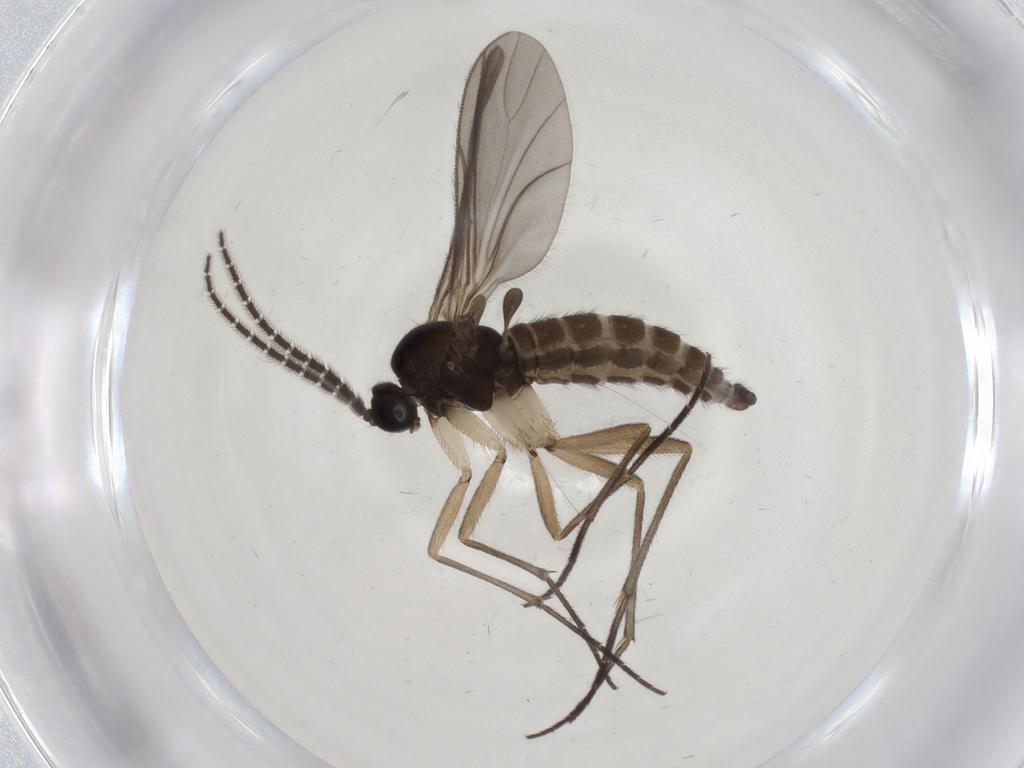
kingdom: Animalia
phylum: Arthropoda
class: Insecta
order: Diptera
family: Sciaridae
